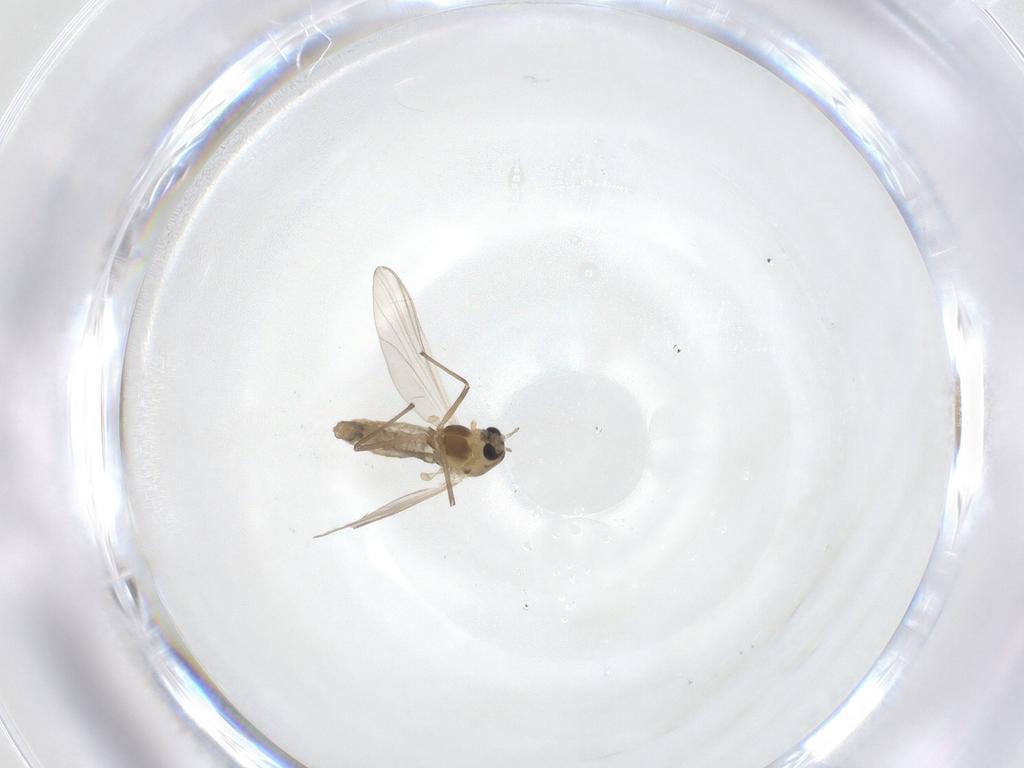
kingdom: Animalia
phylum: Arthropoda
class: Insecta
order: Diptera
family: Chironomidae
